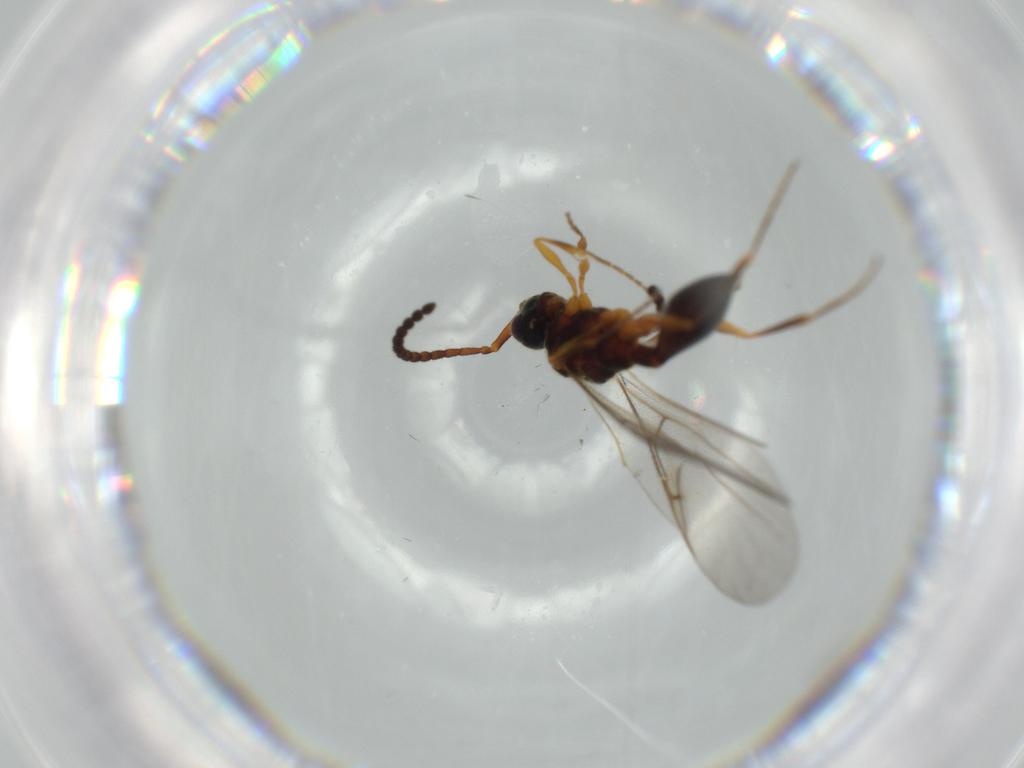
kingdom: Animalia
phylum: Arthropoda
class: Insecta
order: Hymenoptera
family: Diapriidae
